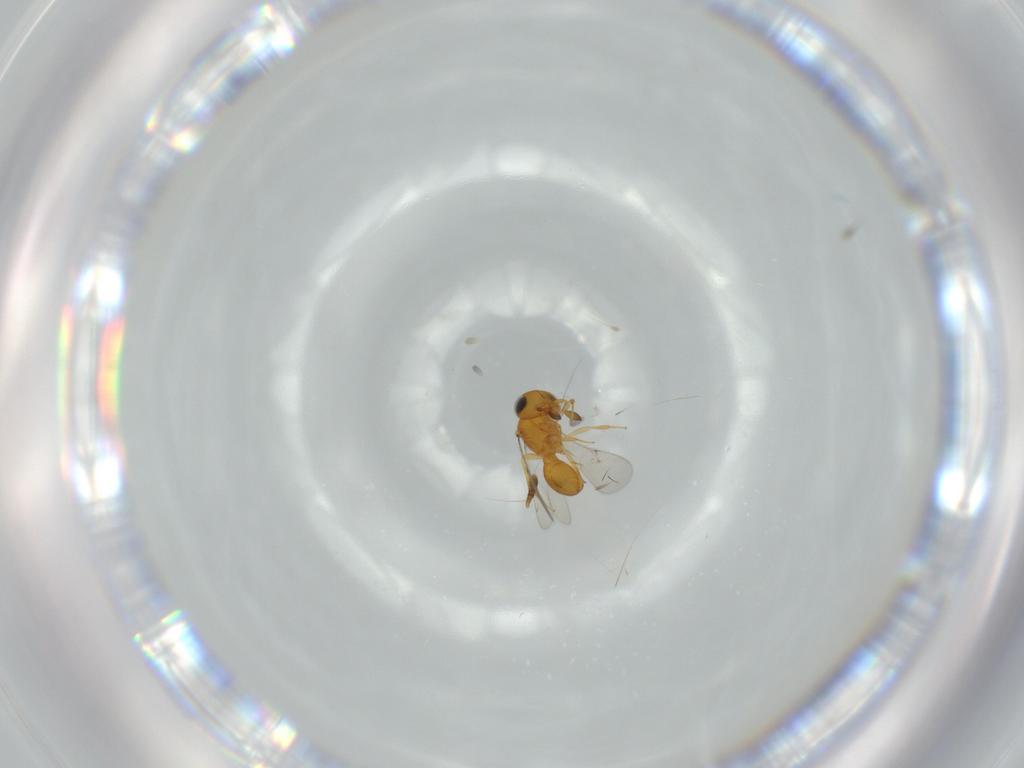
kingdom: Animalia
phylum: Arthropoda
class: Insecta
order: Hymenoptera
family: Scelionidae
